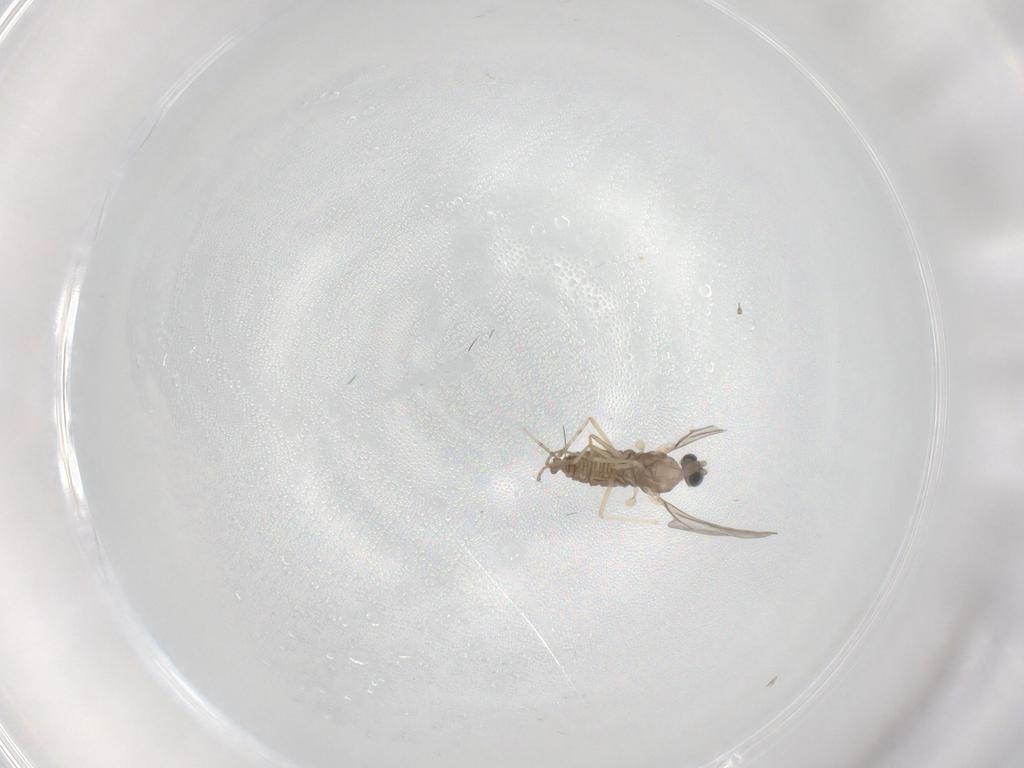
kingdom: Animalia
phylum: Arthropoda
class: Insecta
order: Diptera
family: Cecidomyiidae
